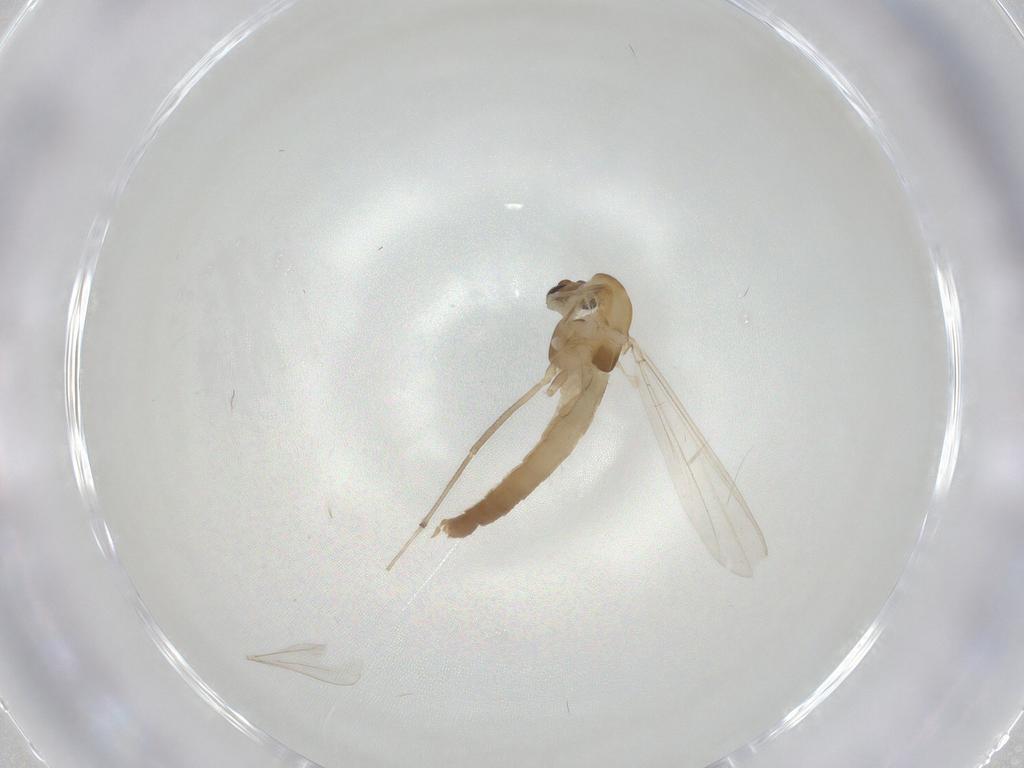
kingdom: Animalia
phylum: Arthropoda
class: Insecta
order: Diptera
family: Chironomidae
